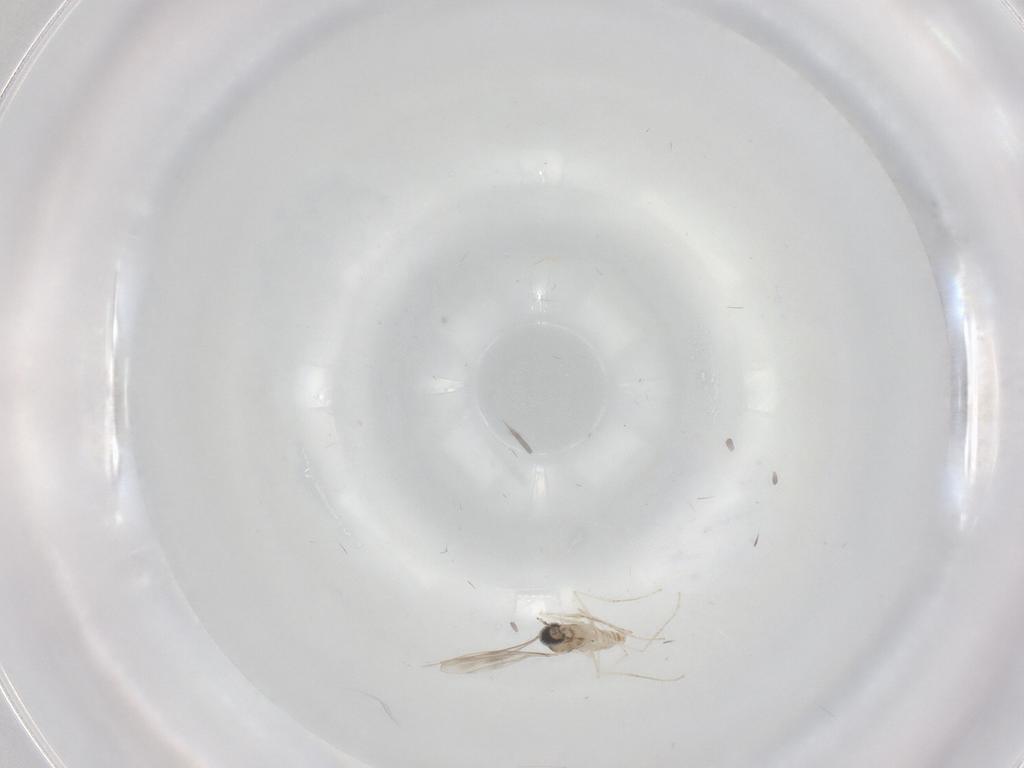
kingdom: Animalia
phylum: Arthropoda
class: Insecta
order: Diptera
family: Cecidomyiidae
